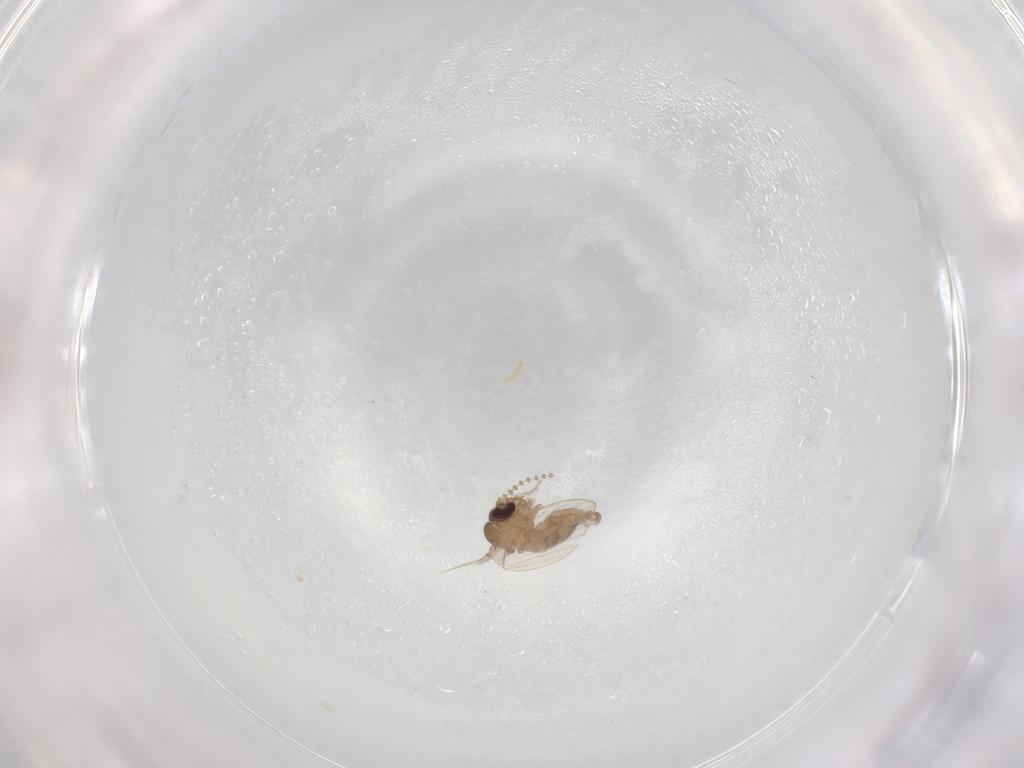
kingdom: Animalia
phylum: Arthropoda
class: Insecta
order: Diptera
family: Psychodidae
